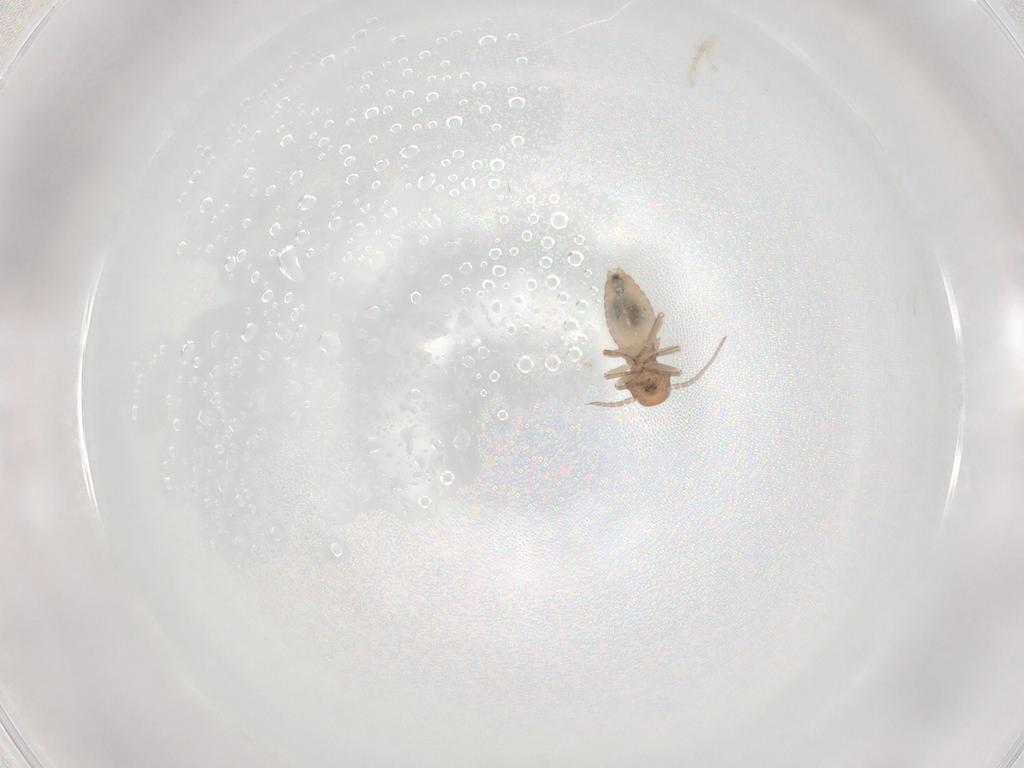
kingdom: Animalia
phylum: Arthropoda
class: Insecta
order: Psocodea
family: Caeciliusidae
